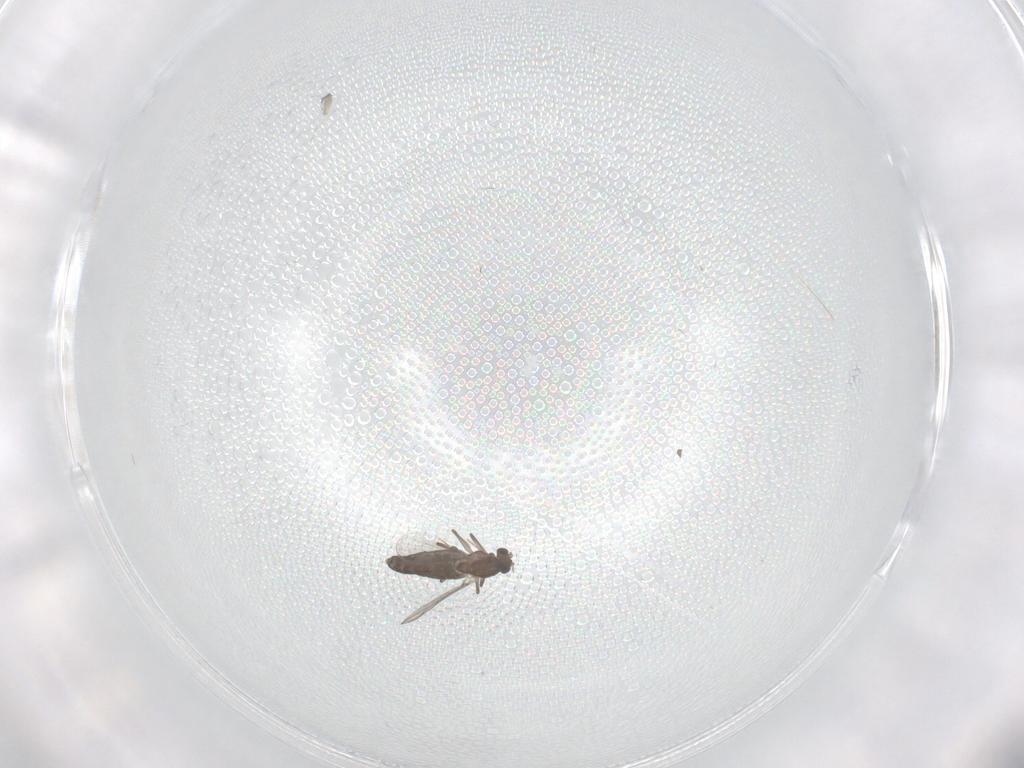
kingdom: Animalia
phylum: Arthropoda
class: Insecta
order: Diptera
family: Chironomidae
